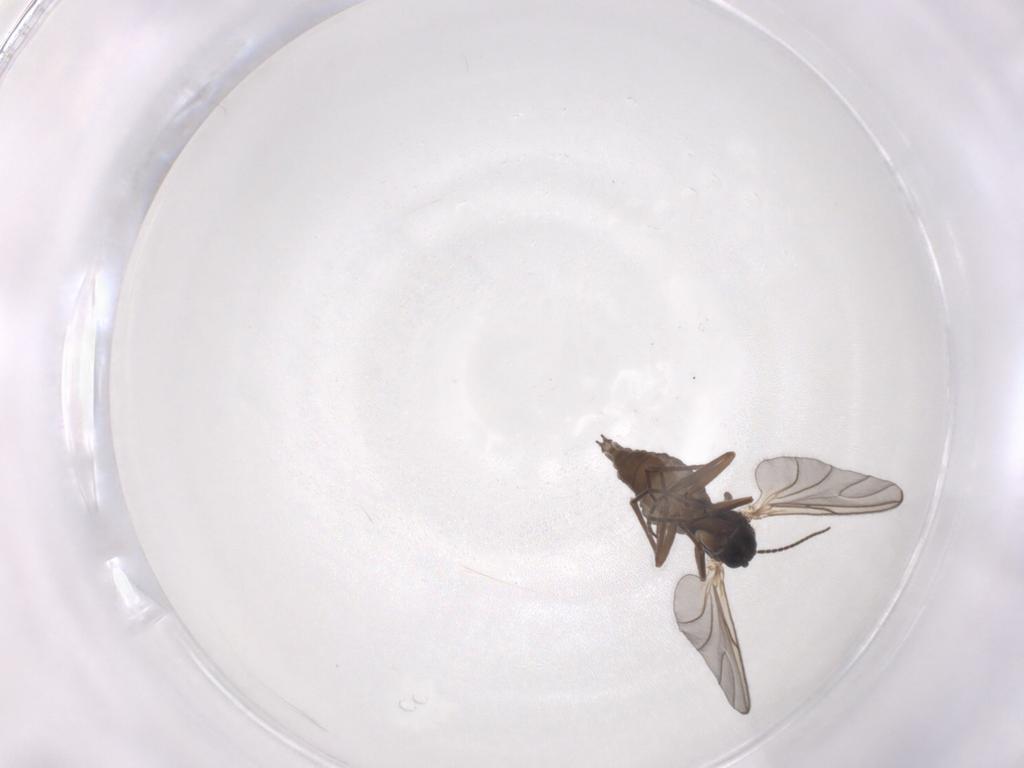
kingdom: Animalia
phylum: Arthropoda
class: Insecta
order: Diptera
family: Sciaridae
